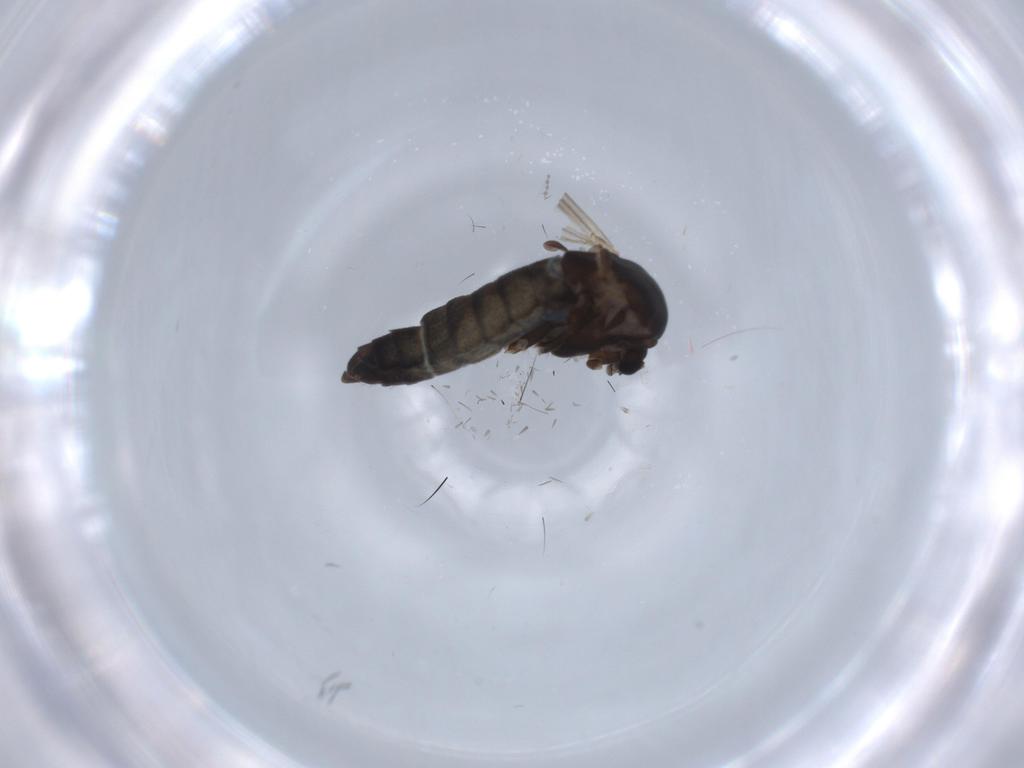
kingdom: Animalia
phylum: Arthropoda
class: Insecta
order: Diptera
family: Chironomidae
